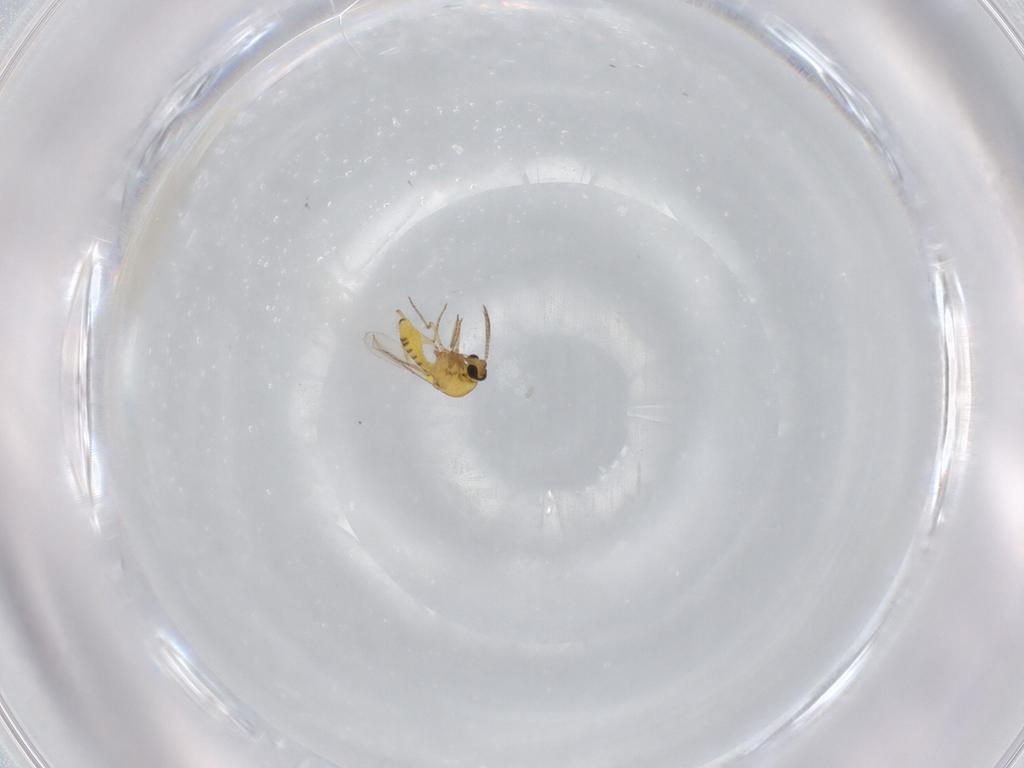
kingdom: Animalia
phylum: Arthropoda
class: Insecta
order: Diptera
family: Ceratopogonidae
